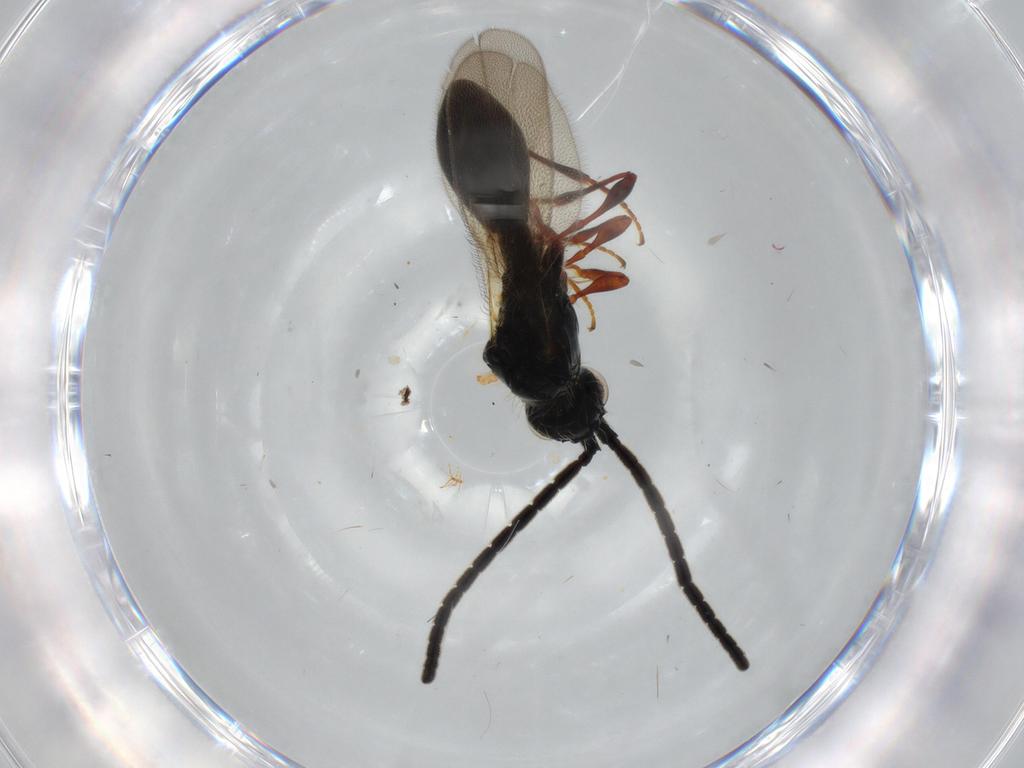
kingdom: Animalia
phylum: Arthropoda
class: Insecta
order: Hymenoptera
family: Diapriidae
